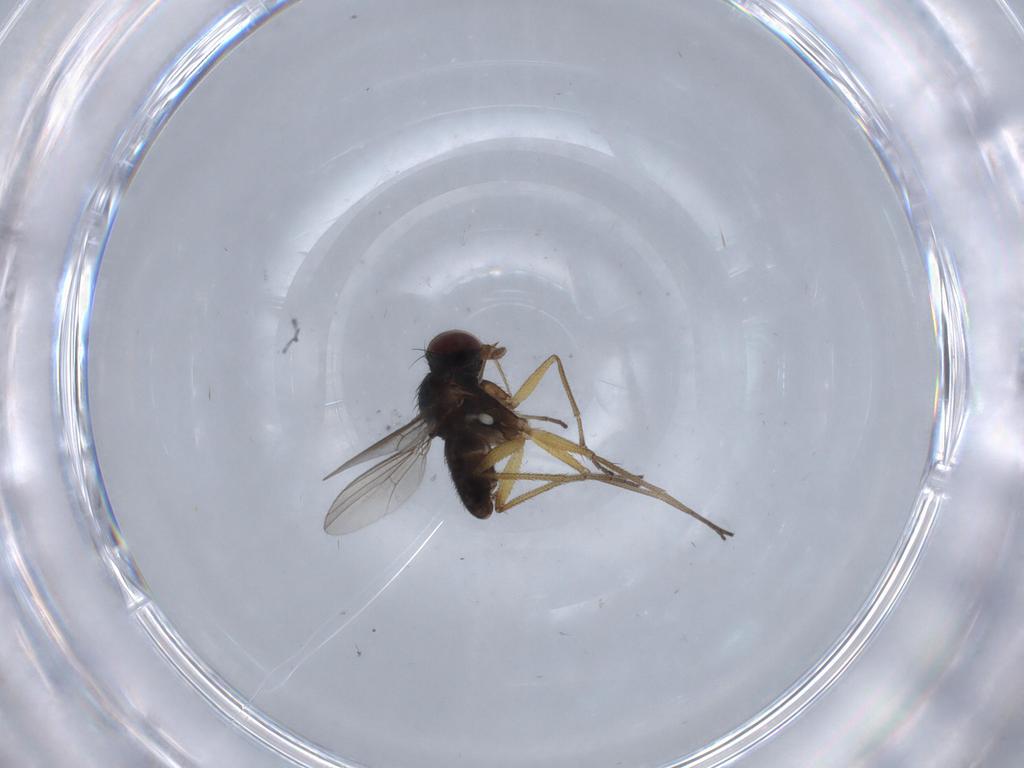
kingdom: Animalia
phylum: Arthropoda
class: Insecta
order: Diptera
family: Dolichopodidae
